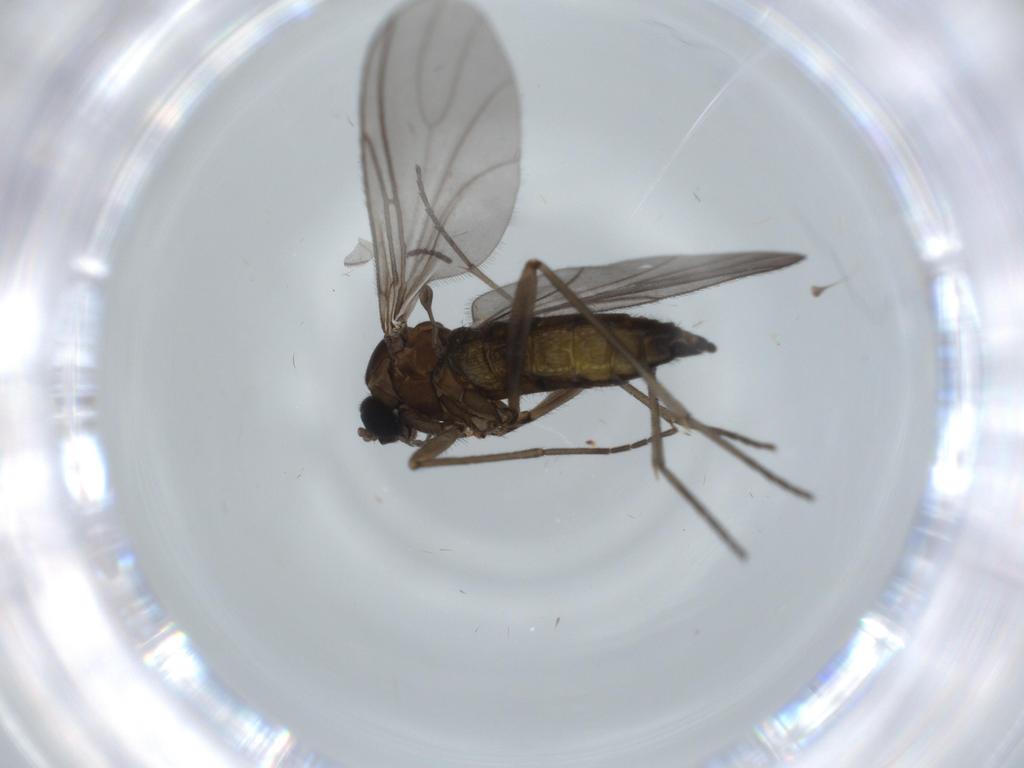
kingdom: Animalia
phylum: Arthropoda
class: Insecta
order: Diptera
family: Sciaridae
